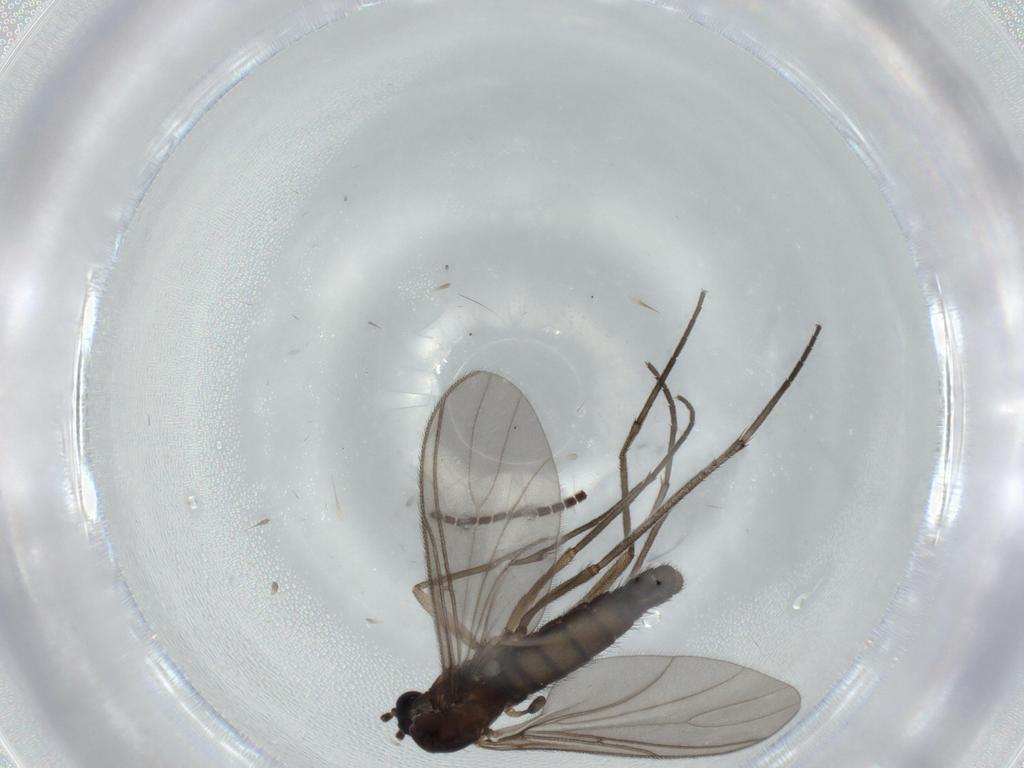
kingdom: Animalia
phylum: Arthropoda
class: Insecta
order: Diptera
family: Sciaridae
